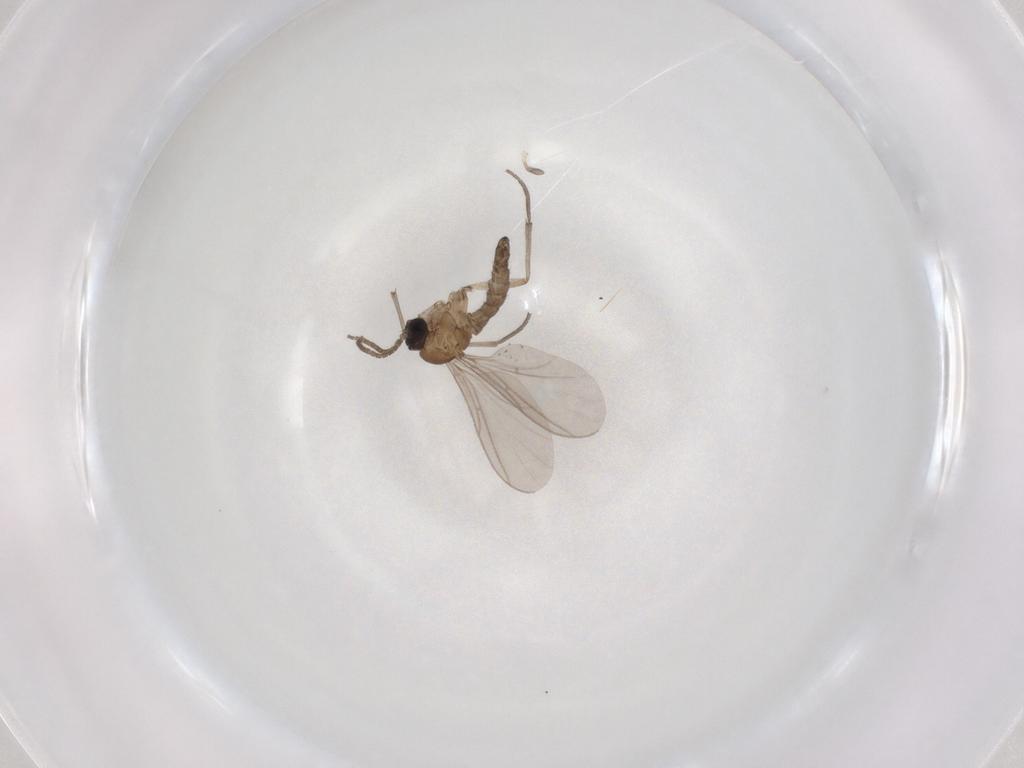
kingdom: Animalia
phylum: Arthropoda
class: Insecta
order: Diptera
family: Sciaridae
